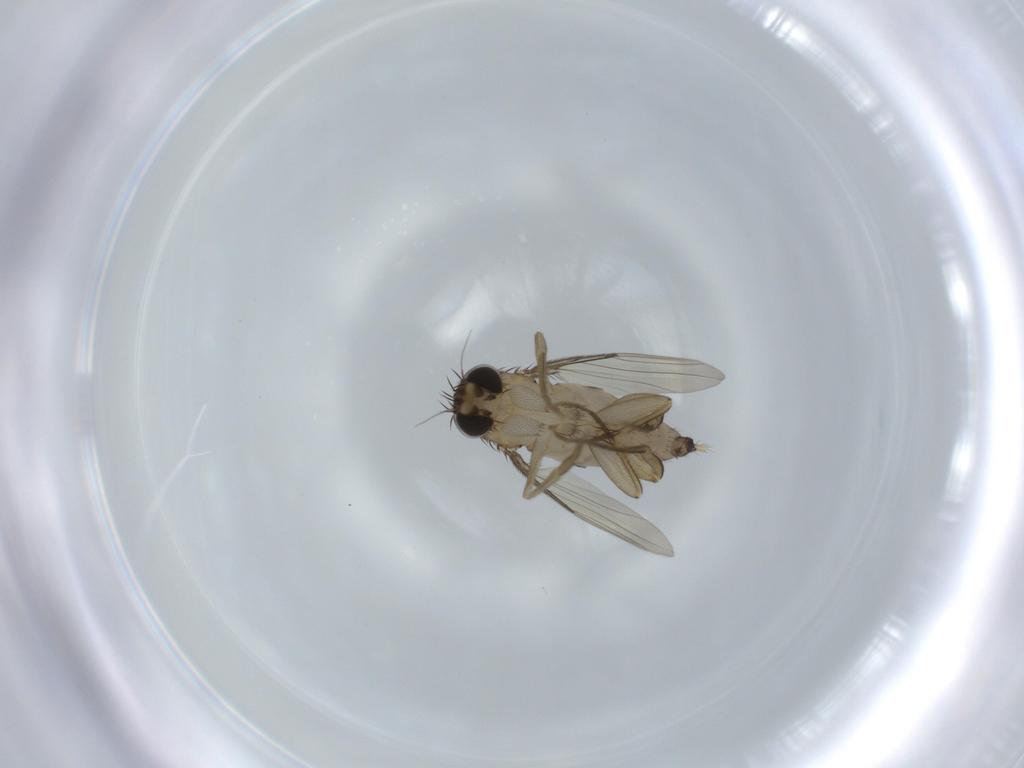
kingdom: Animalia
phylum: Arthropoda
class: Insecta
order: Diptera
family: Phoridae
